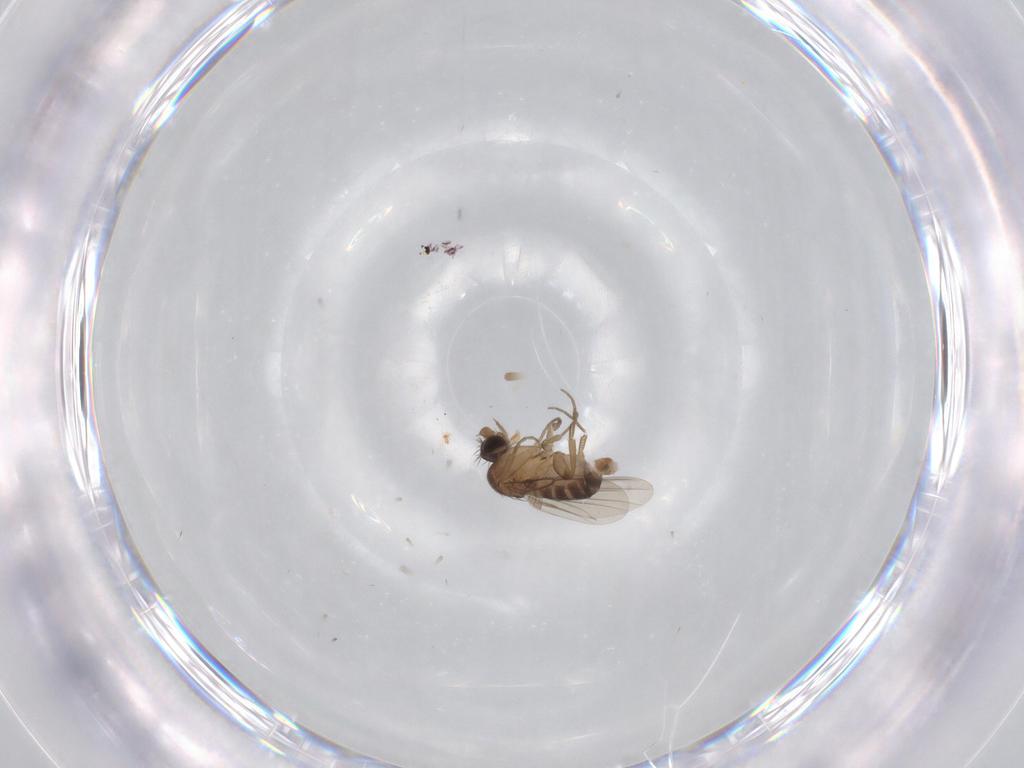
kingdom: Animalia
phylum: Arthropoda
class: Insecta
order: Diptera
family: Phoridae
